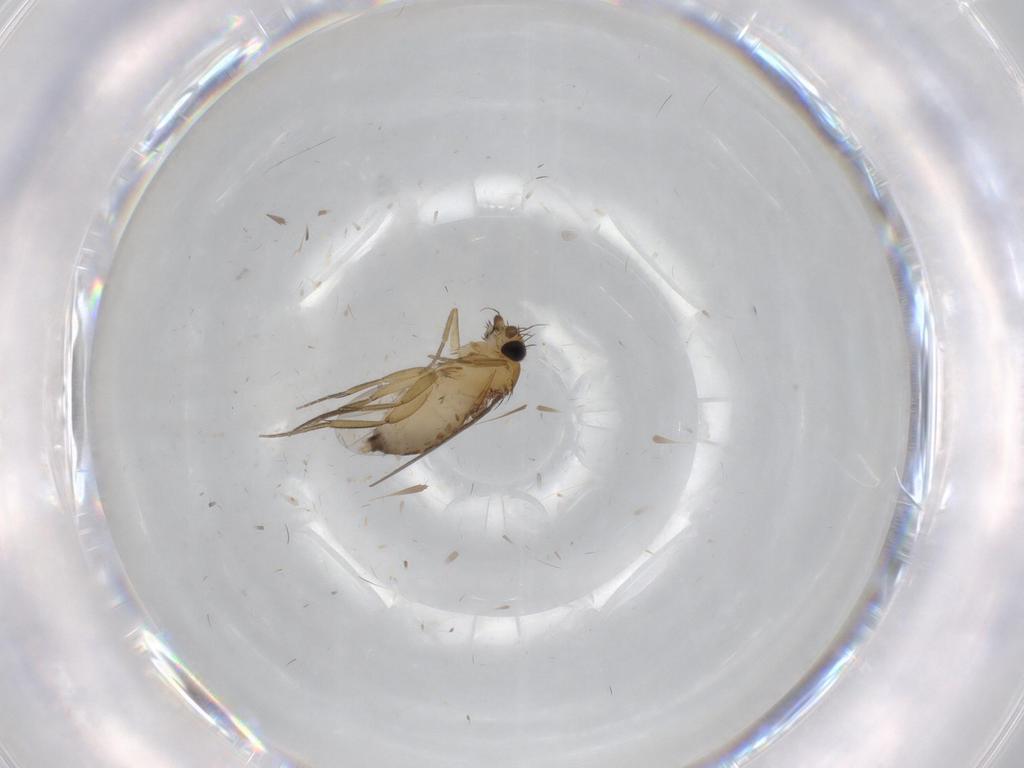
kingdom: Animalia
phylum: Arthropoda
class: Insecta
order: Diptera
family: Phoridae
